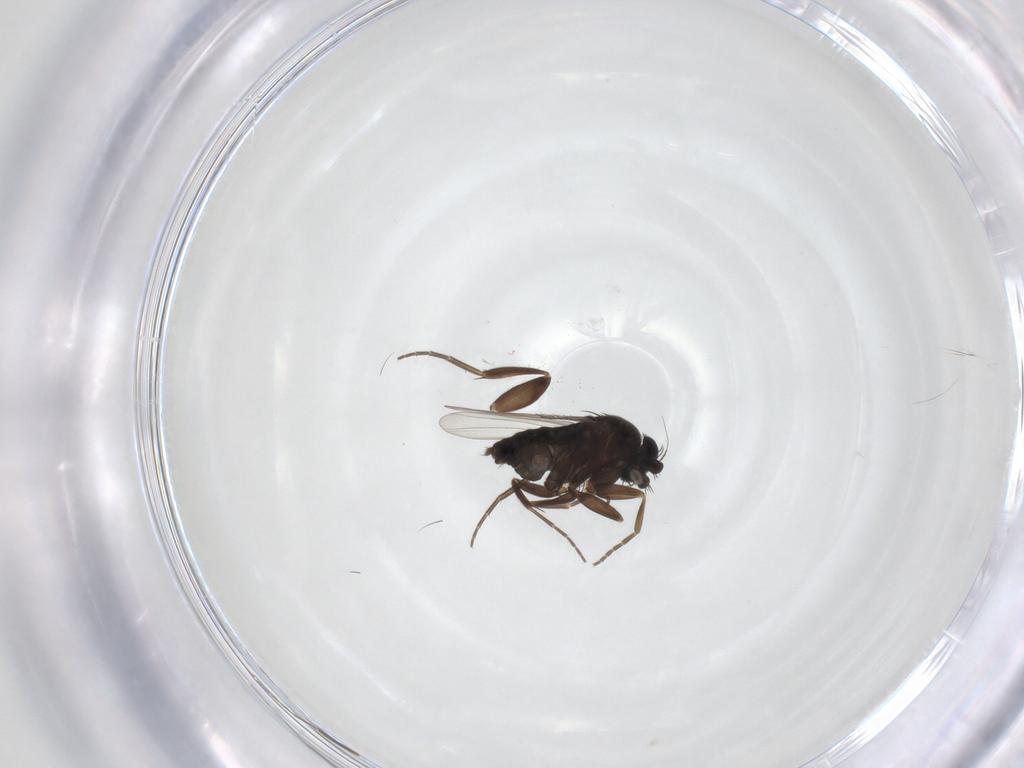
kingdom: Animalia
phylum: Arthropoda
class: Insecta
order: Diptera
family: Phoridae
